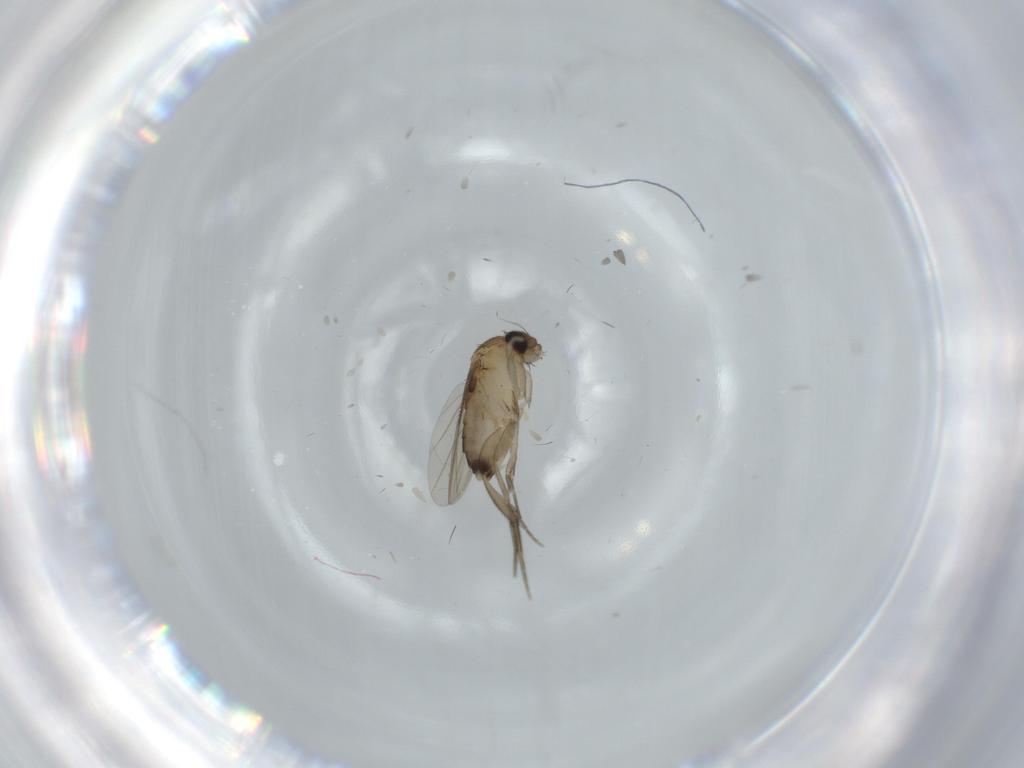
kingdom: Animalia
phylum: Arthropoda
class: Insecta
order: Diptera
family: Phoridae
